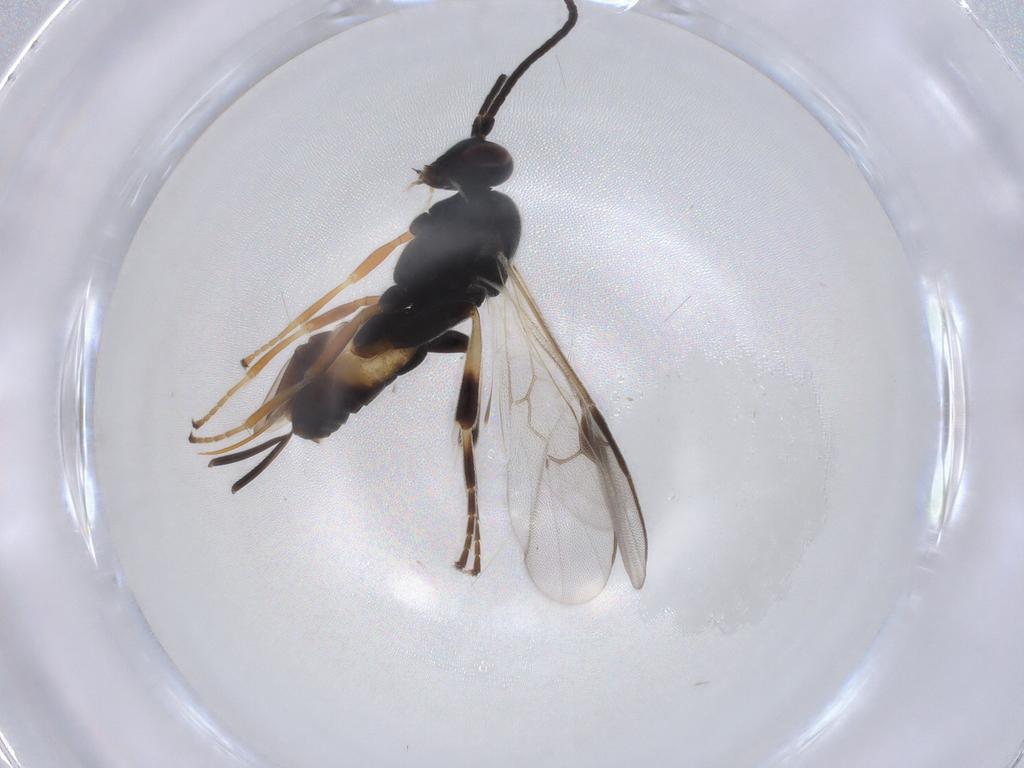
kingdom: Animalia
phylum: Arthropoda
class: Insecta
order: Hymenoptera
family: Braconidae
